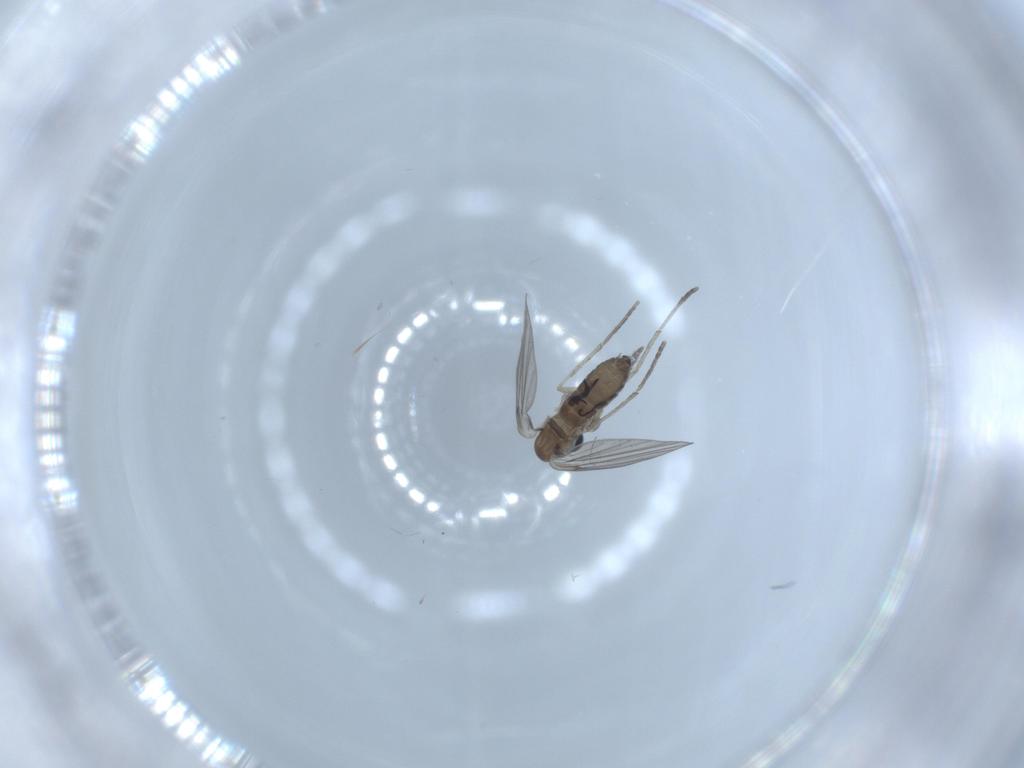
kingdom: Animalia
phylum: Arthropoda
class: Insecta
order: Diptera
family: Psychodidae
